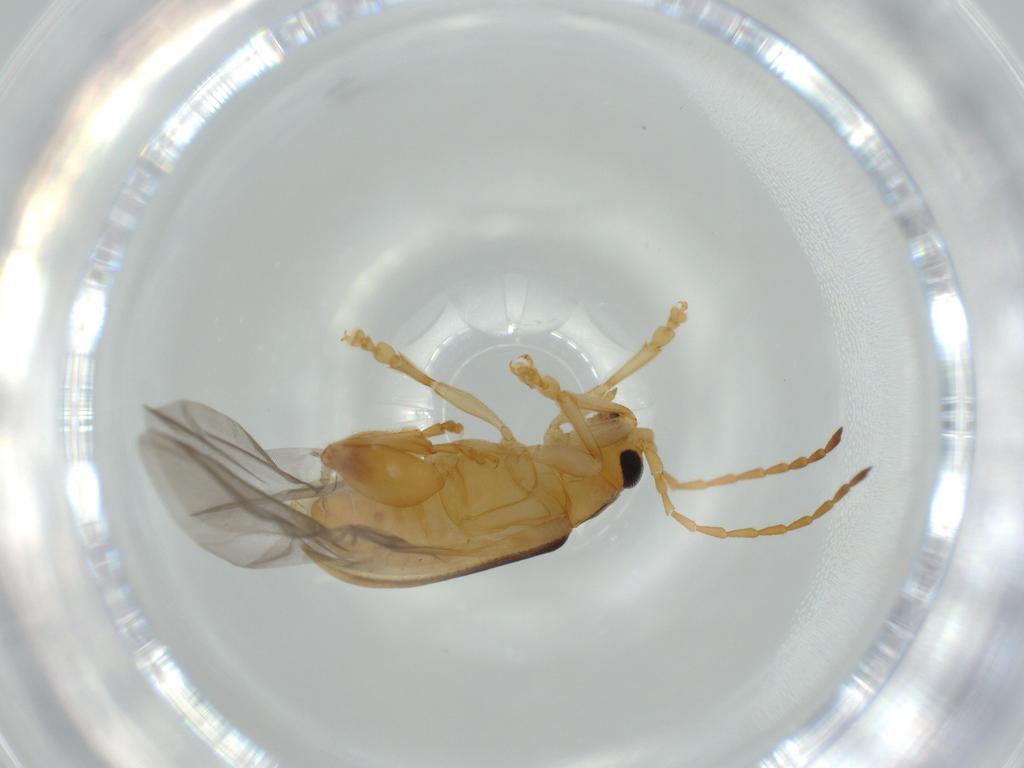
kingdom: Animalia
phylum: Arthropoda
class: Insecta
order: Coleoptera
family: Chrysomelidae
